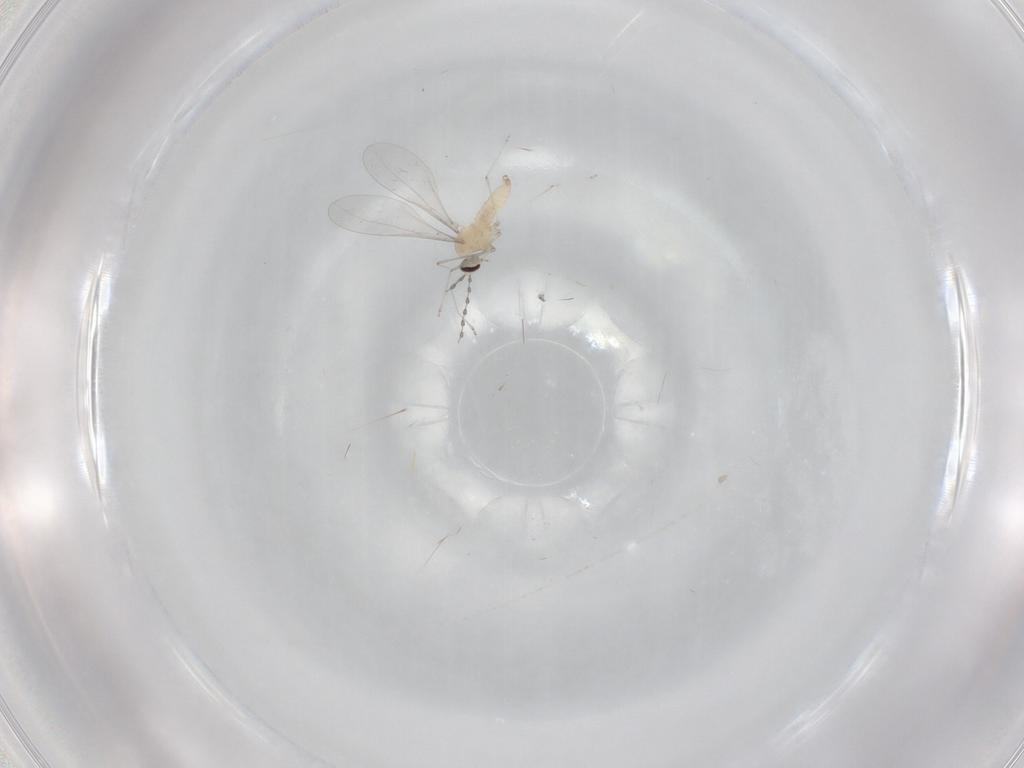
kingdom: Animalia
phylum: Arthropoda
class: Insecta
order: Diptera
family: Cecidomyiidae
